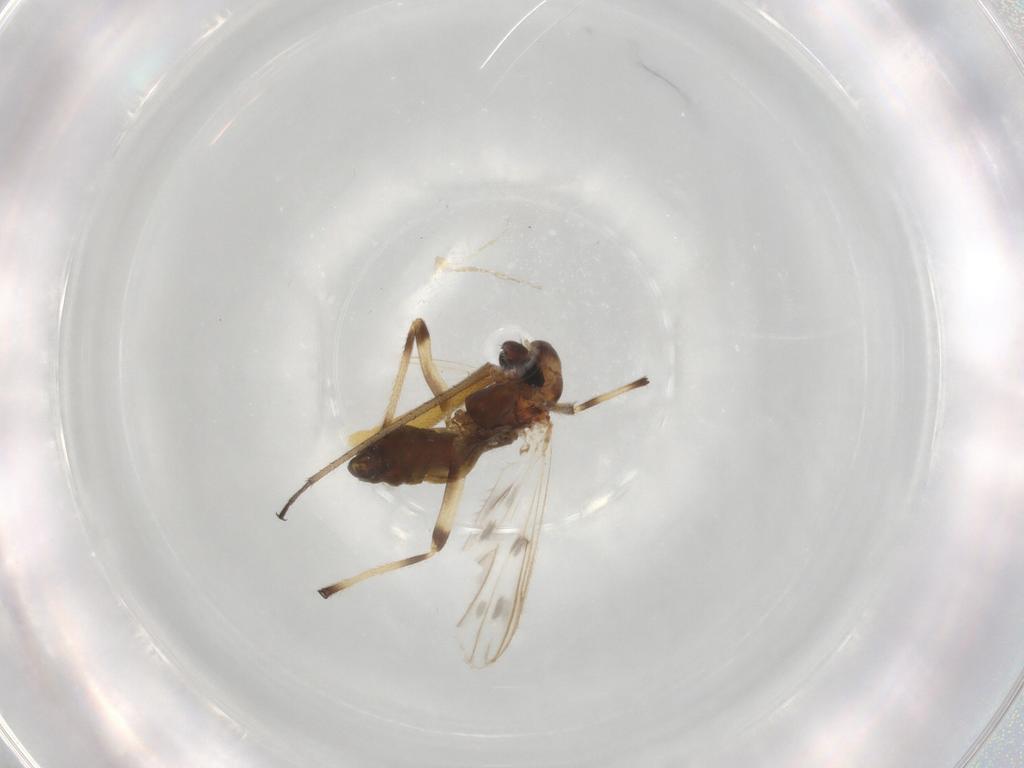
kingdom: Animalia
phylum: Arthropoda
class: Insecta
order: Diptera
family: Chironomidae
